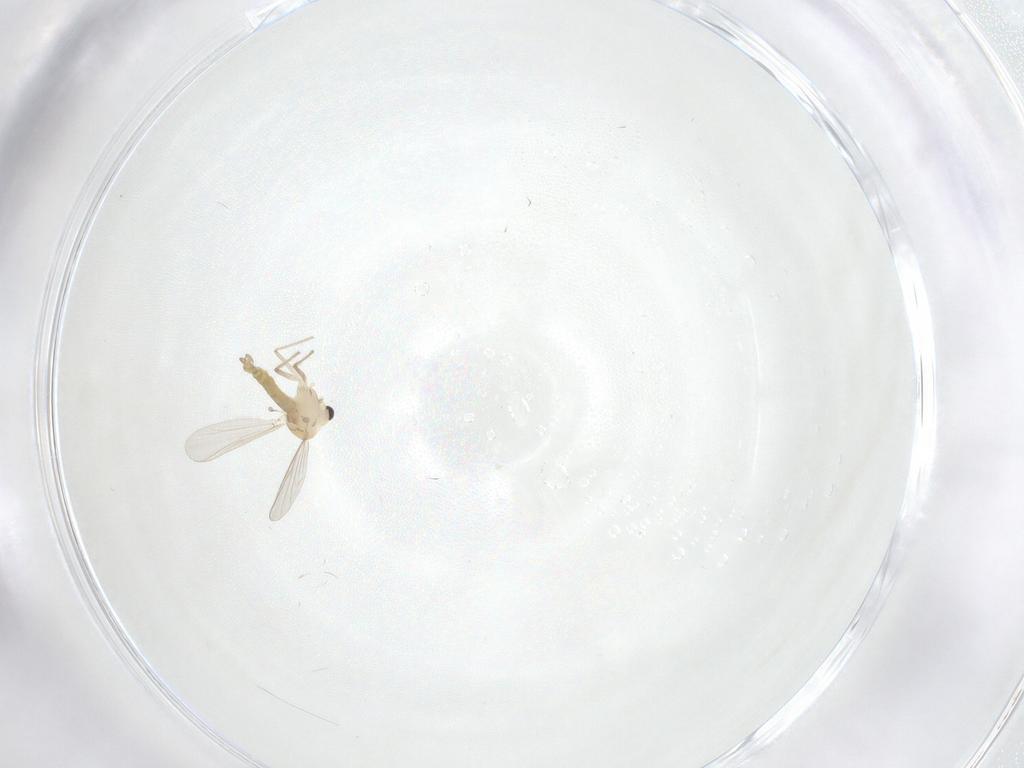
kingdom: Animalia
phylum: Arthropoda
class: Insecta
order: Diptera
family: Phoridae
